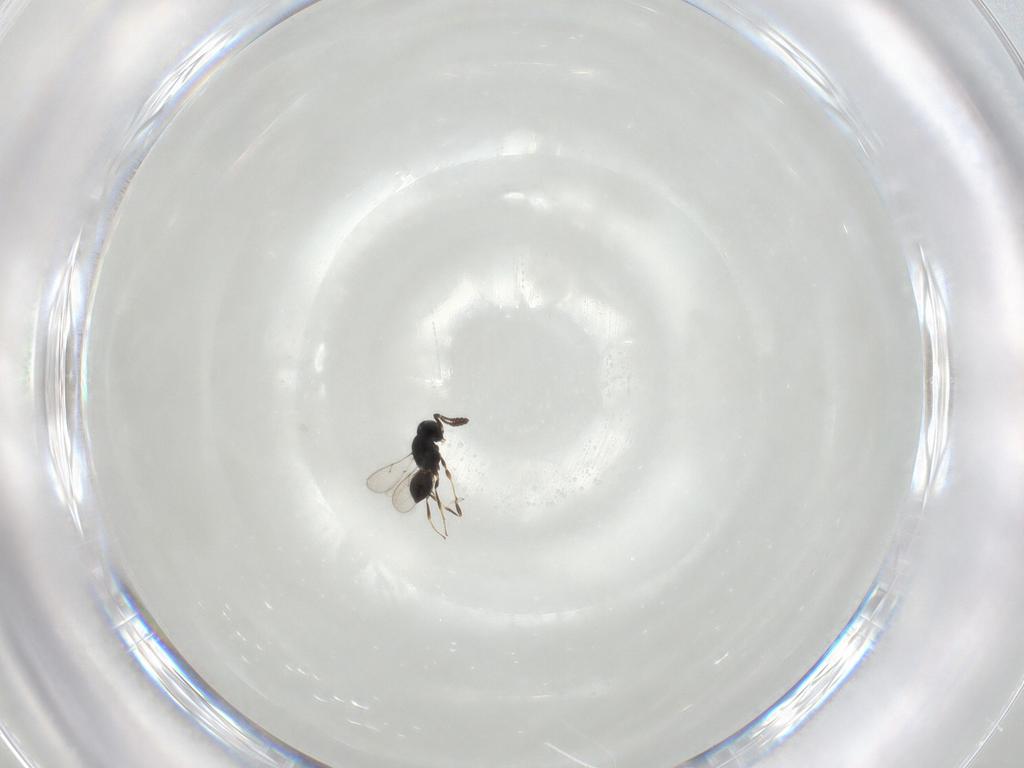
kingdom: Animalia
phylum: Arthropoda
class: Insecta
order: Hymenoptera
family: Scelionidae
